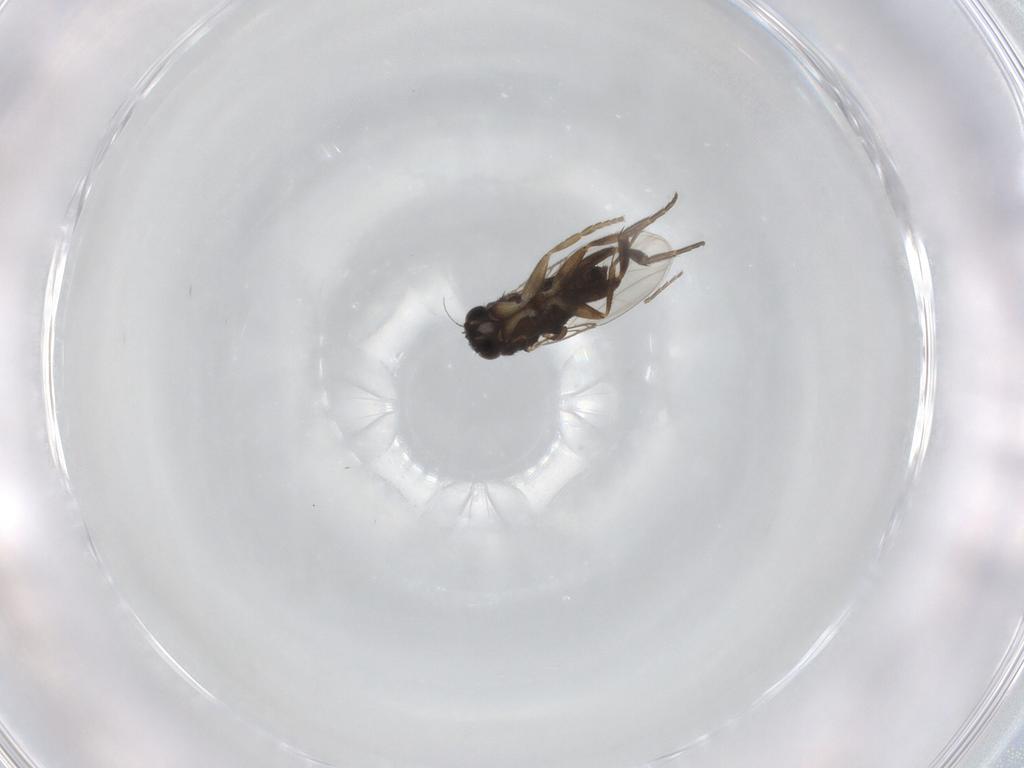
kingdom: Animalia
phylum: Arthropoda
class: Insecta
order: Diptera
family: Phoridae
